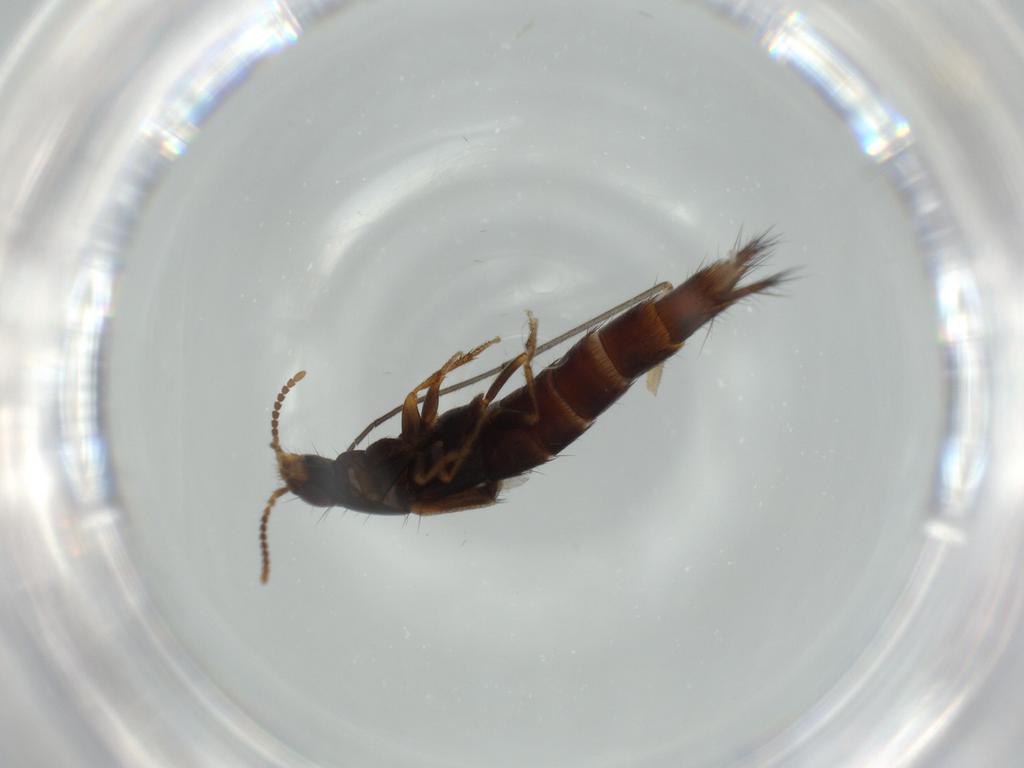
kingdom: Animalia
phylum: Arthropoda
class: Insecta
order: Coleoptera
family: Staphylinidae
